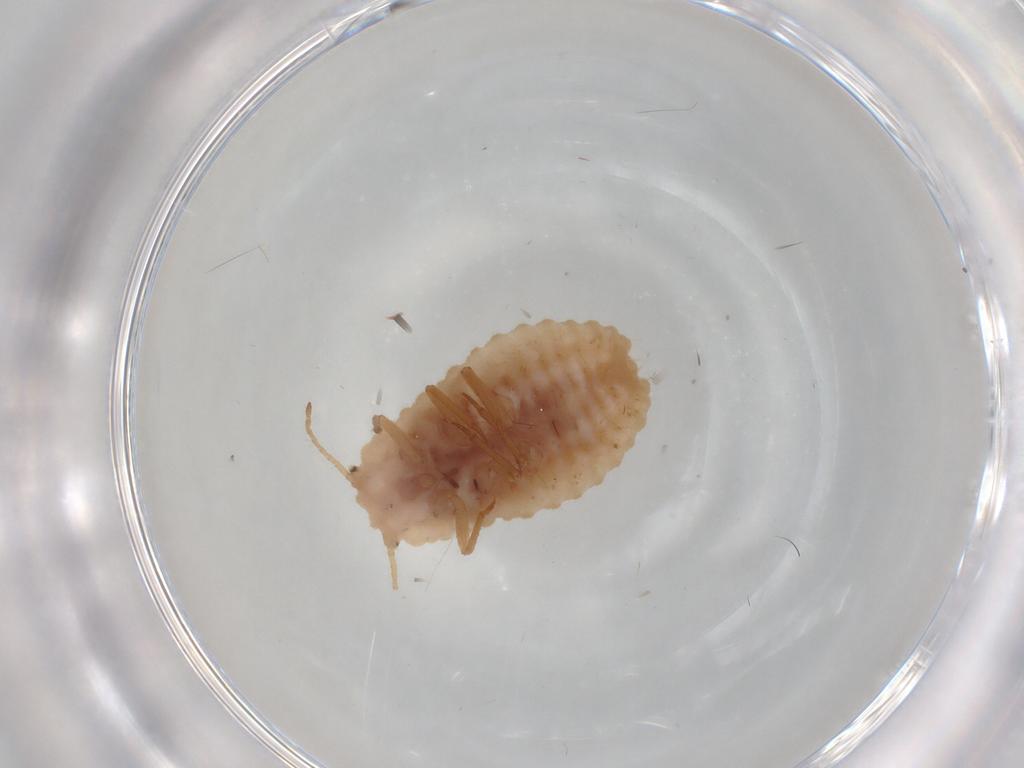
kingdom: Animalia
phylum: Arthropoda
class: Insecta
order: Hemiptera
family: Coccoidea_incertae_sedis
